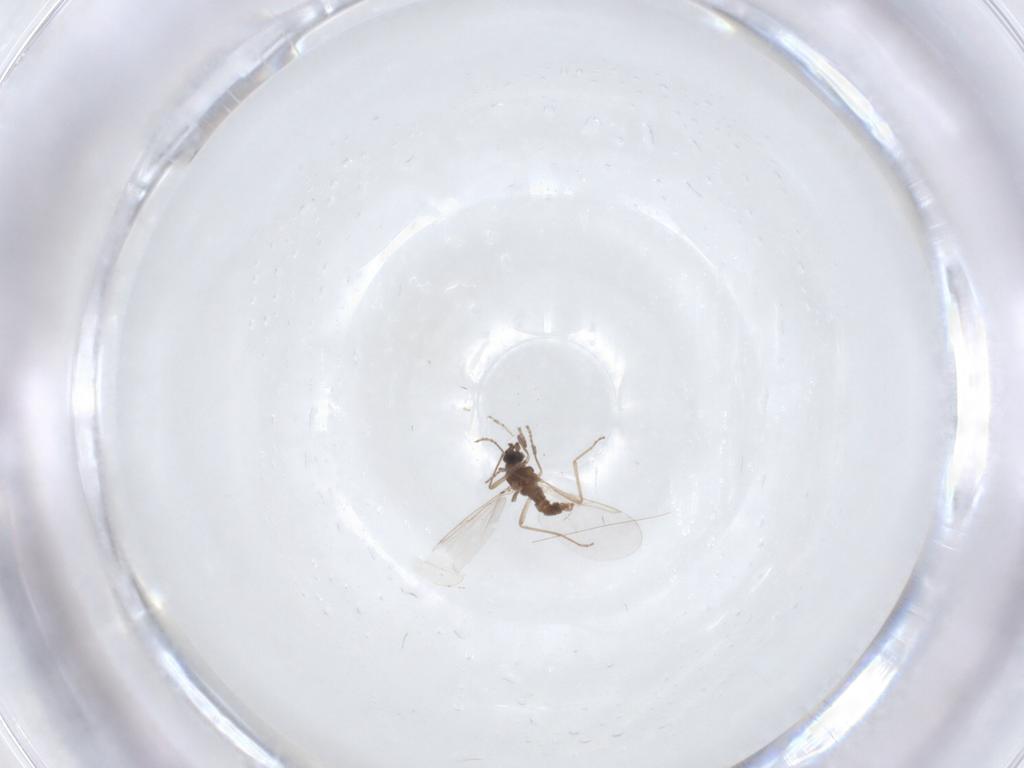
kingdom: Animalia
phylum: Arthropoda
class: Insecta
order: Diptera
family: Cecidomyiidae
